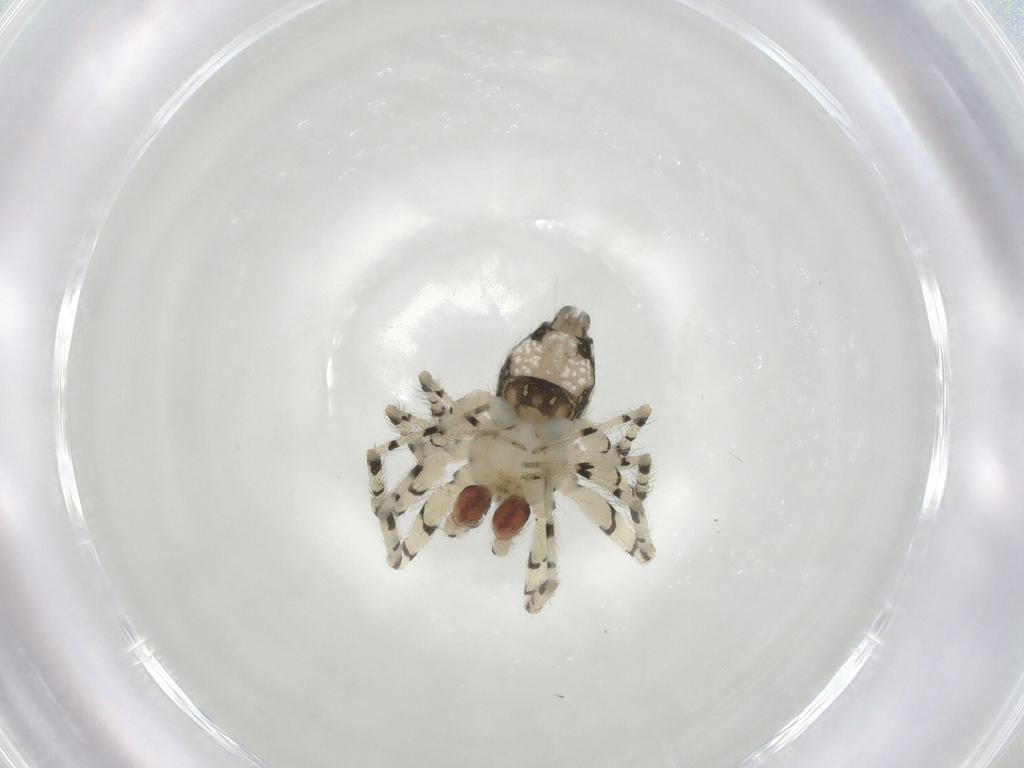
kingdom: Animalia
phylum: Arthropoda
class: Arachnida
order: Araneae
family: Oecobiidae
